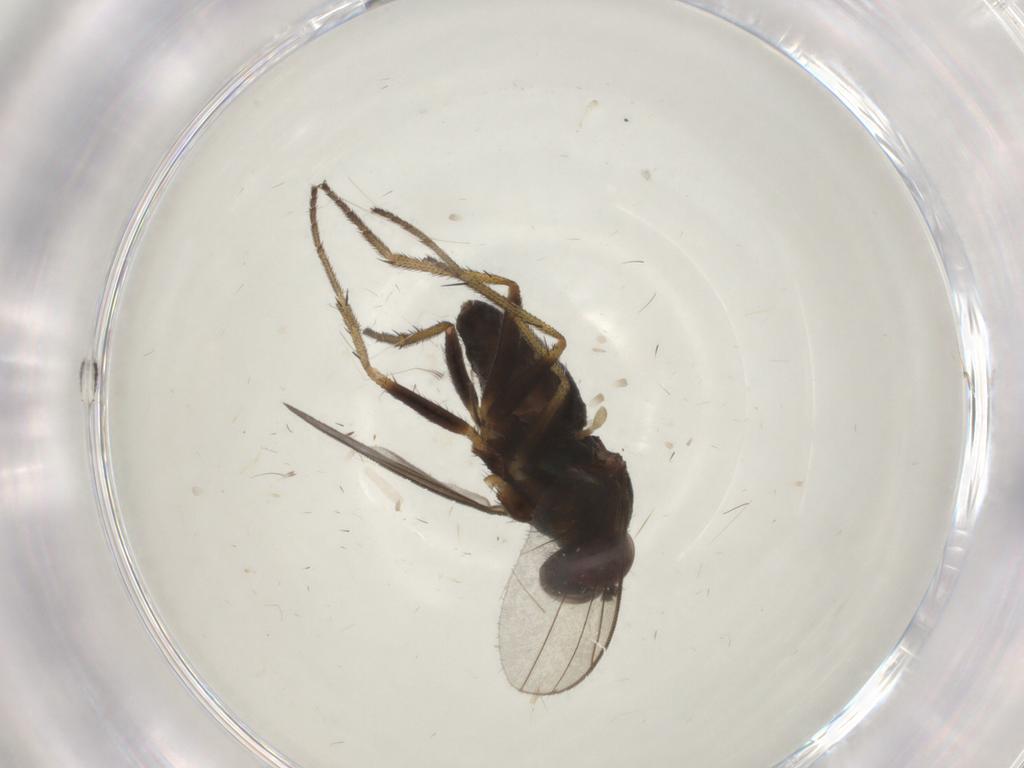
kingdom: Animalia
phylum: Arthropoda
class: Insecta
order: Diptera
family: Dolichopodidae
